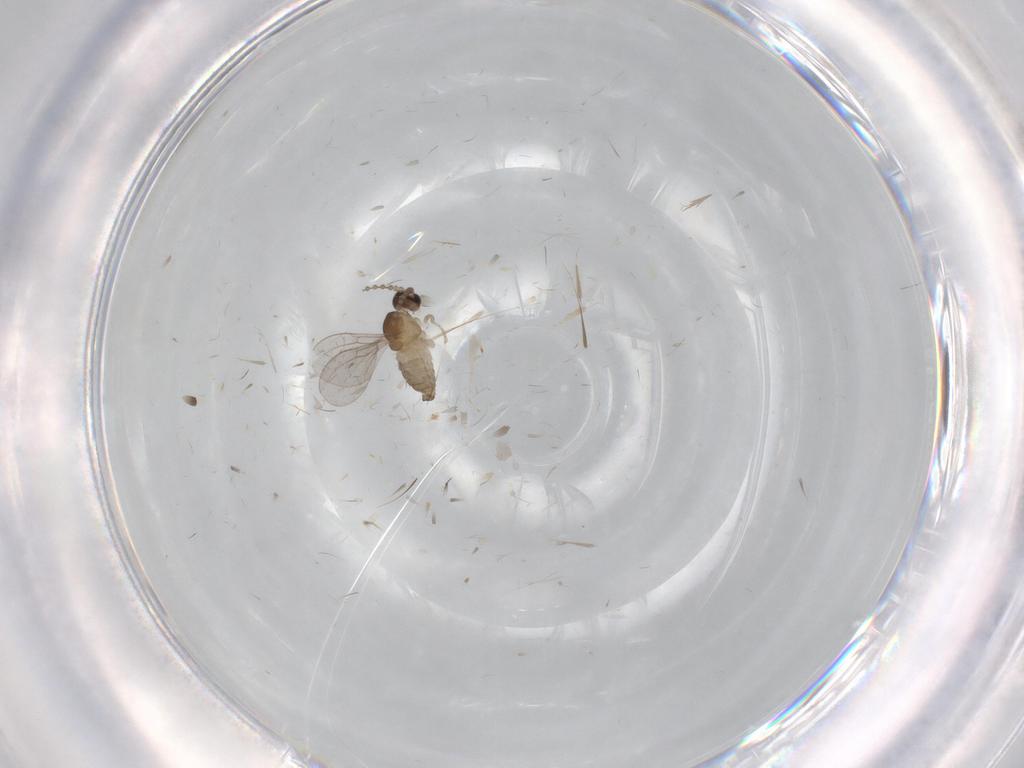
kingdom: Animalia
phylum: Arthropoda
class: Insecta
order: Diptera
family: Cecidomyiidae
